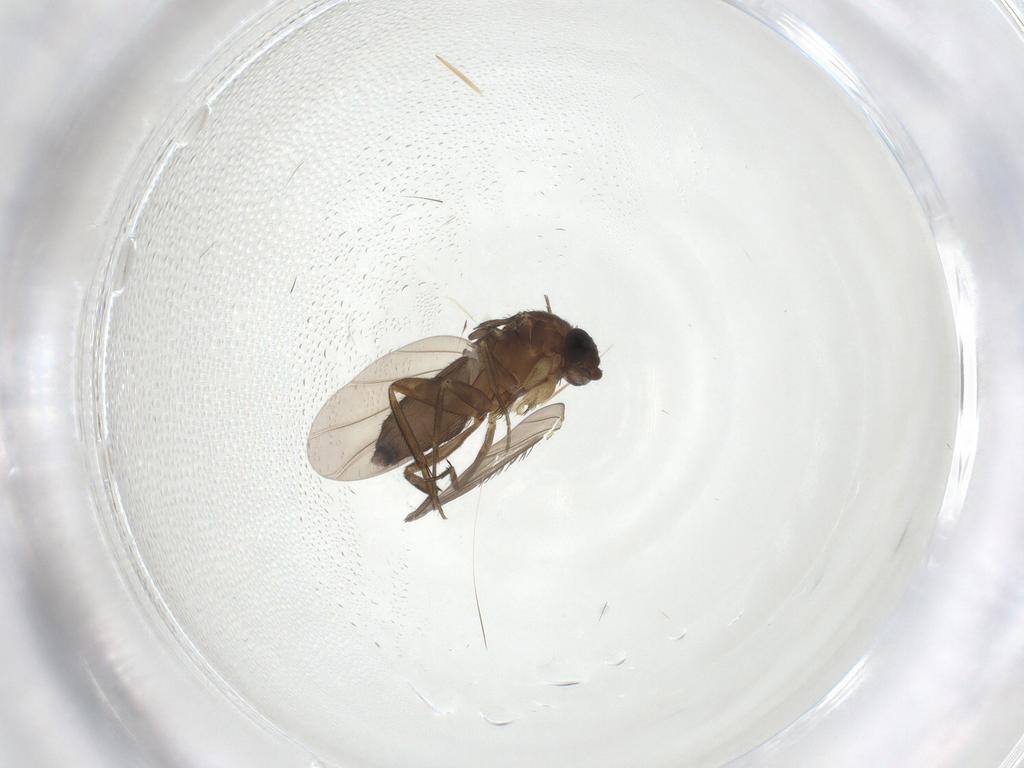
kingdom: Animalia
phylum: Arthropoda
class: Insecta
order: Diptera
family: Phoridae
